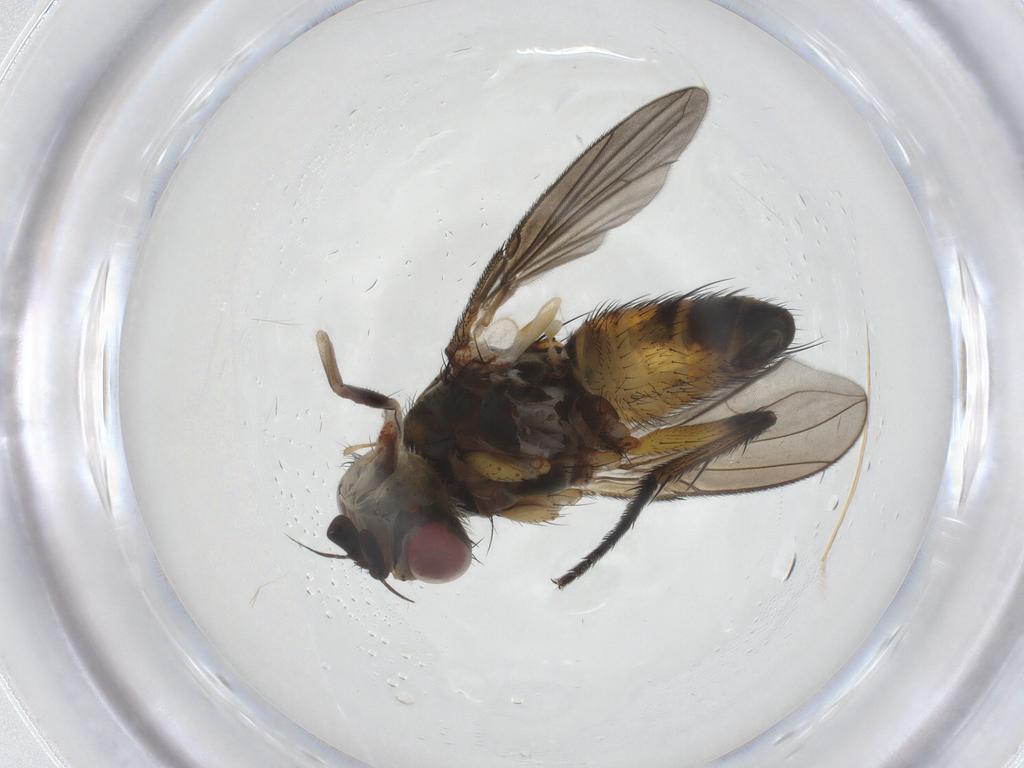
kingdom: Animalia
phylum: Arthropoda
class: Insecta
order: Diptera
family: Tachinidae
